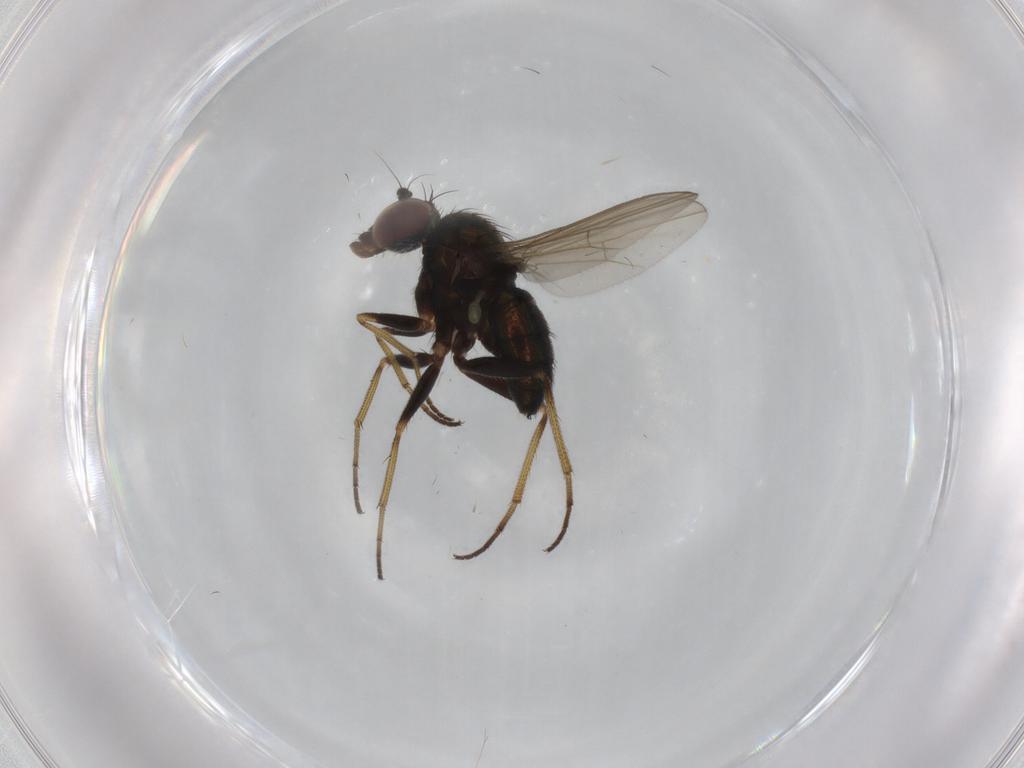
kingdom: Animalia
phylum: Arthropoda
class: Insecta
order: Diptera
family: Dolichopodidae
